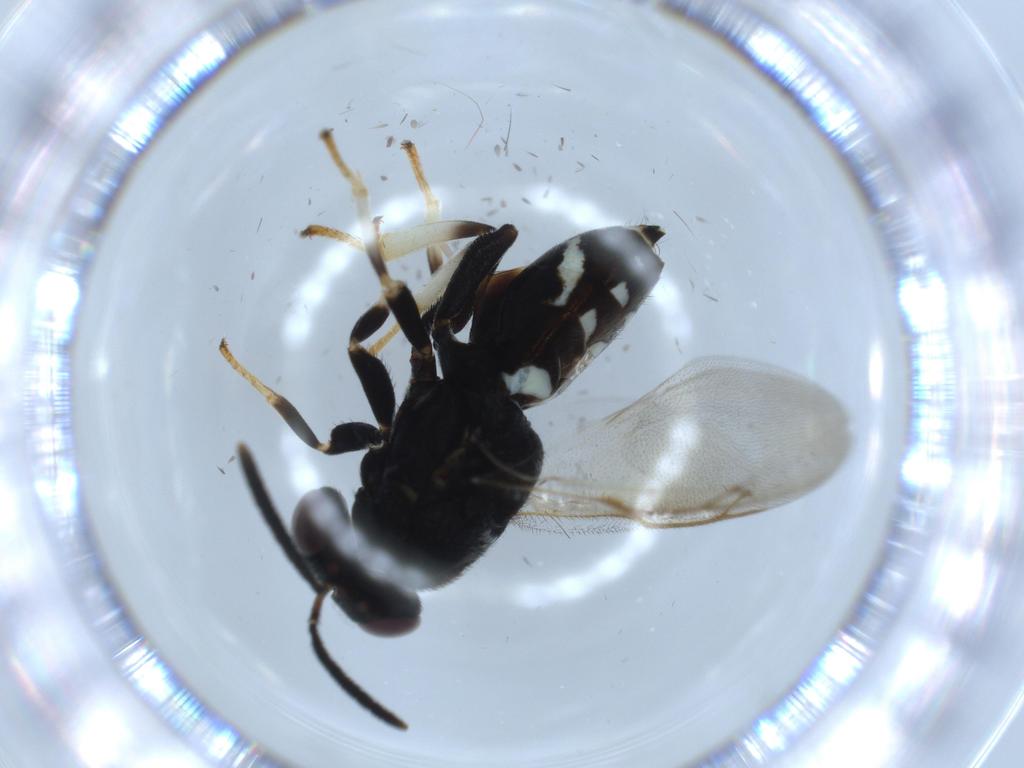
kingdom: Animalia
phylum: Arthropoda
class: Insecta
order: Hymenoptera
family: Tanaostigmatidae
